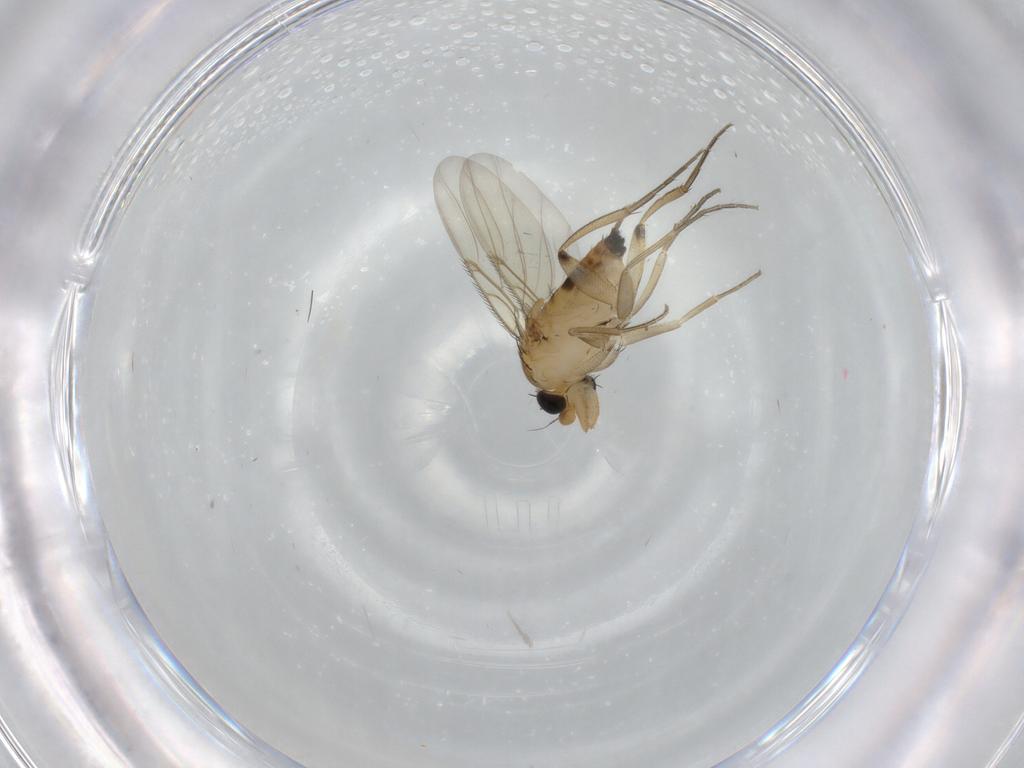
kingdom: Animalia
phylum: Arthropoda
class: Insecta
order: Diptera
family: Phoridae
